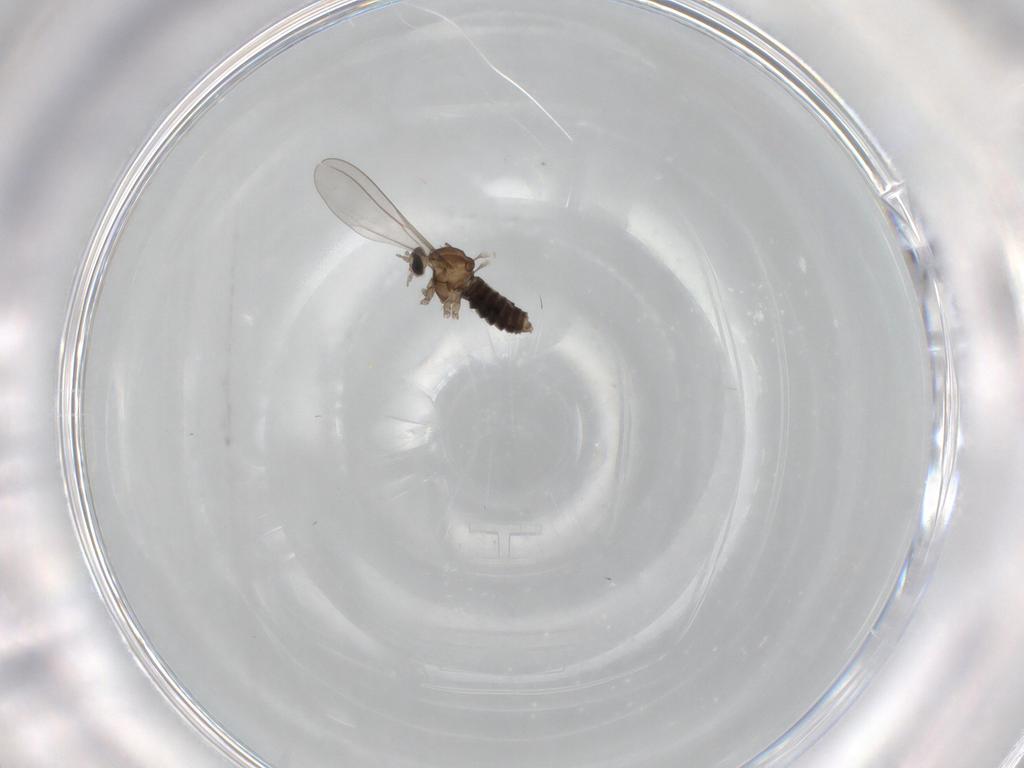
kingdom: Animalia
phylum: Arthropoda
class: Insecta
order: Diptera
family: Cecidomyiidae
